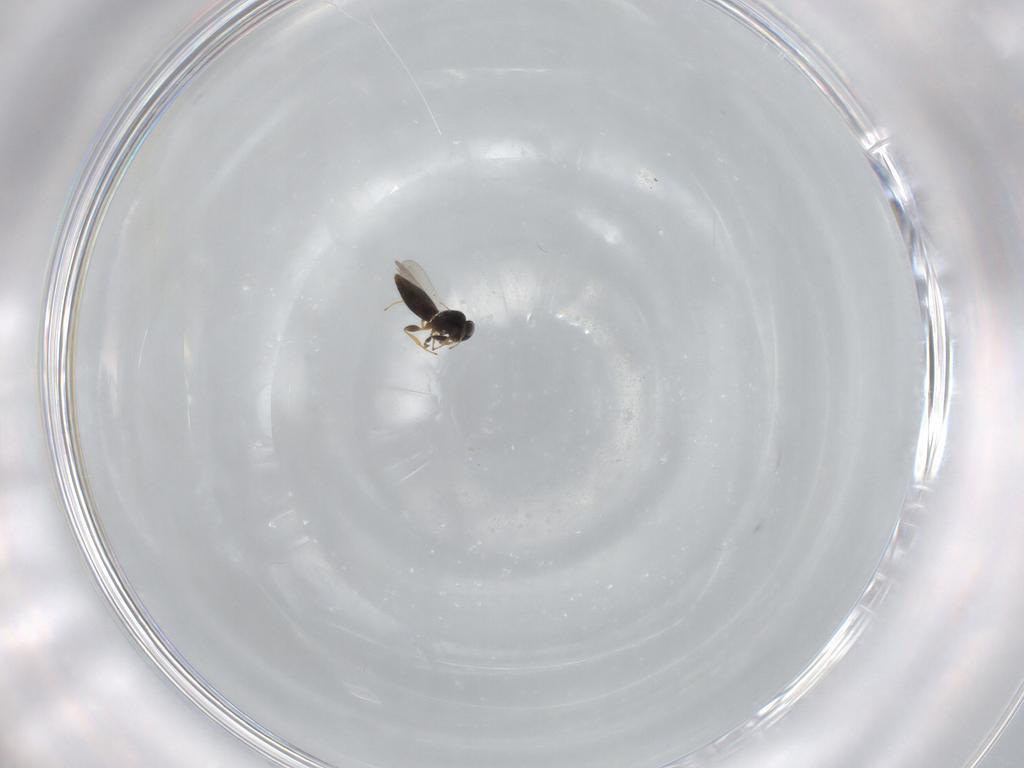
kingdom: Animalia
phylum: Arthropoda
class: Insecta
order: Hymenoptera
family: Platygastridae
